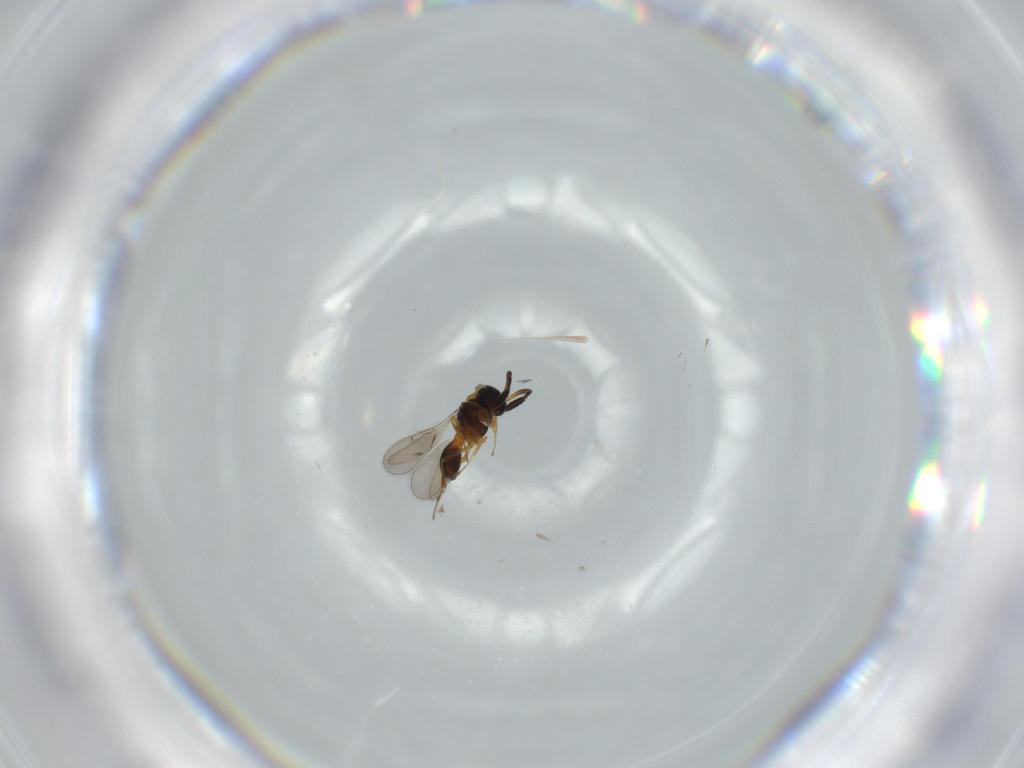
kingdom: Animalia
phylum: Arthropoda
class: Insecta
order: Hymenoptera
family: Scelionidae
